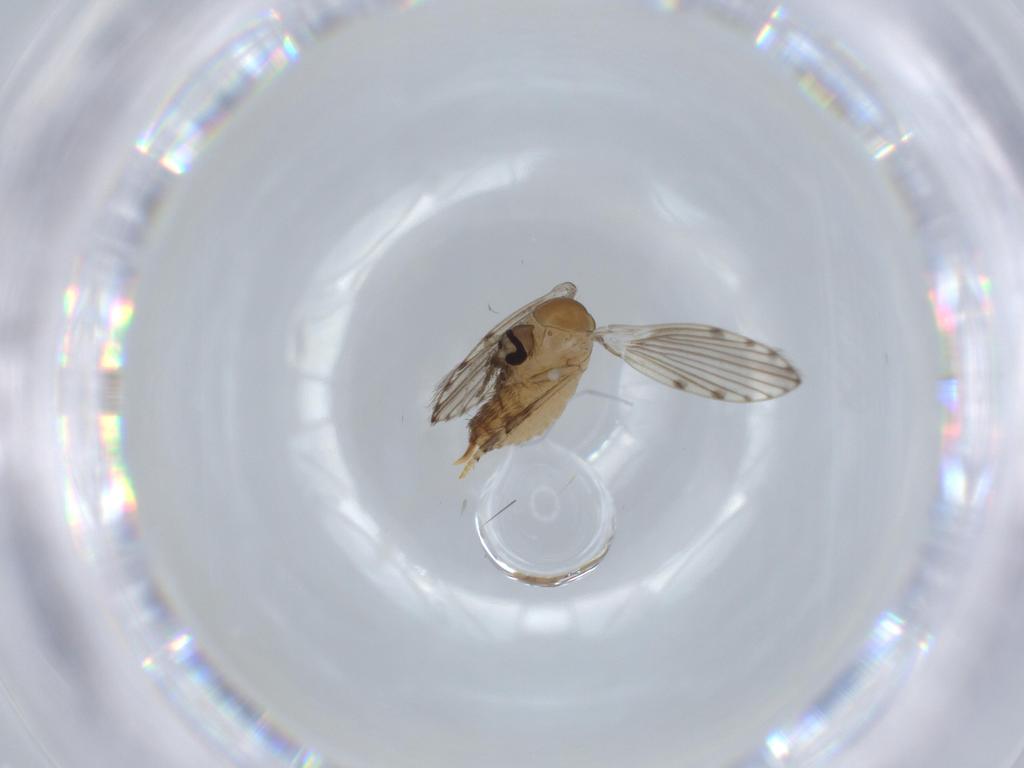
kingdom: Animalia
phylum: Arthropoda
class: Insecta
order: Diptera
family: Psychodidae
